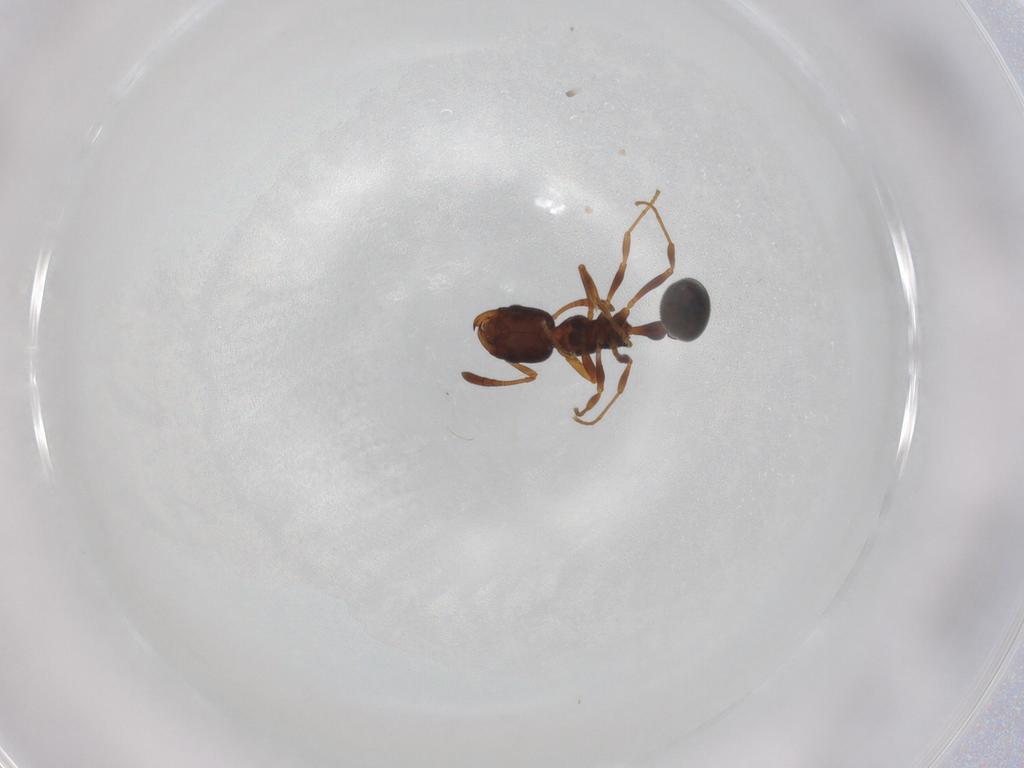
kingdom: Animalia
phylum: Arthropoda
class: Insecta
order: Hymenoptera
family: Formicidae
